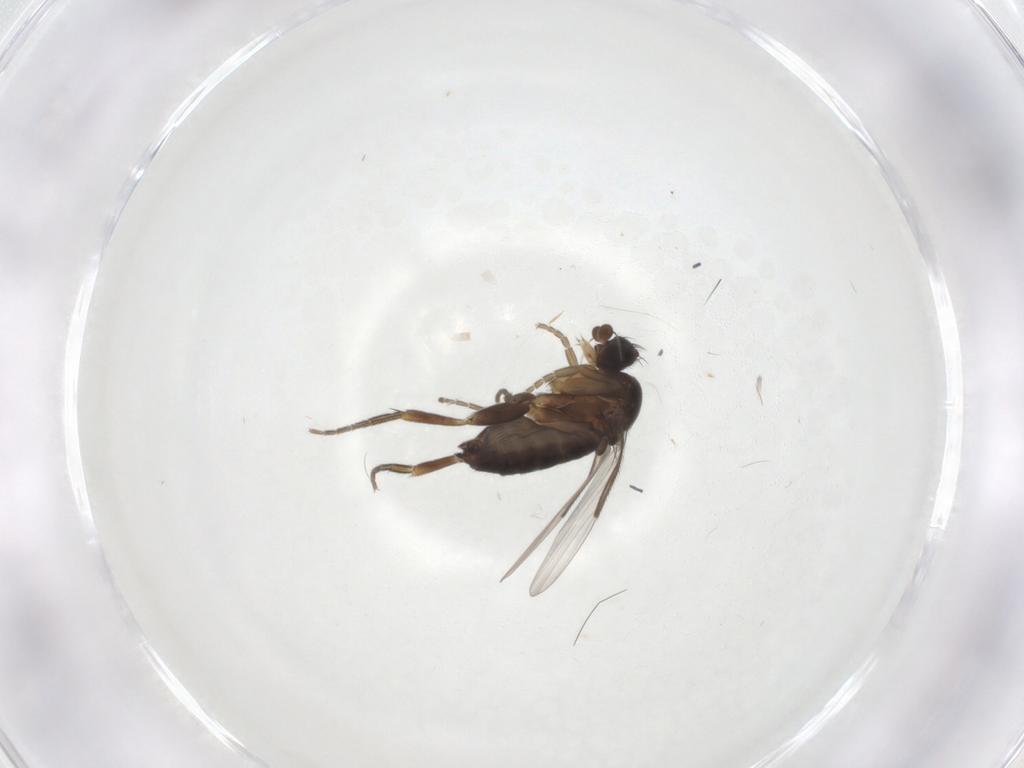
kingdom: Animalia
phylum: Arthropoda
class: Insecta
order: Diptera
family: Phoridae
